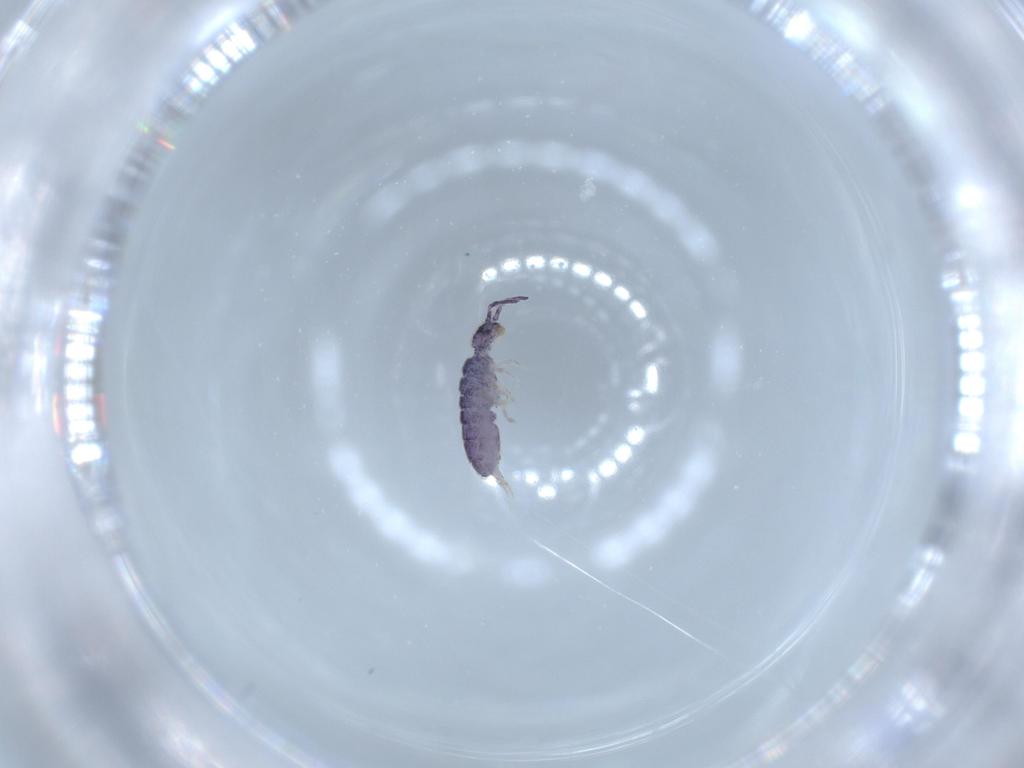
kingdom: Animalia
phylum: Arthropoda
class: Collembola
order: Entomobryomorpha
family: Isotomidae
